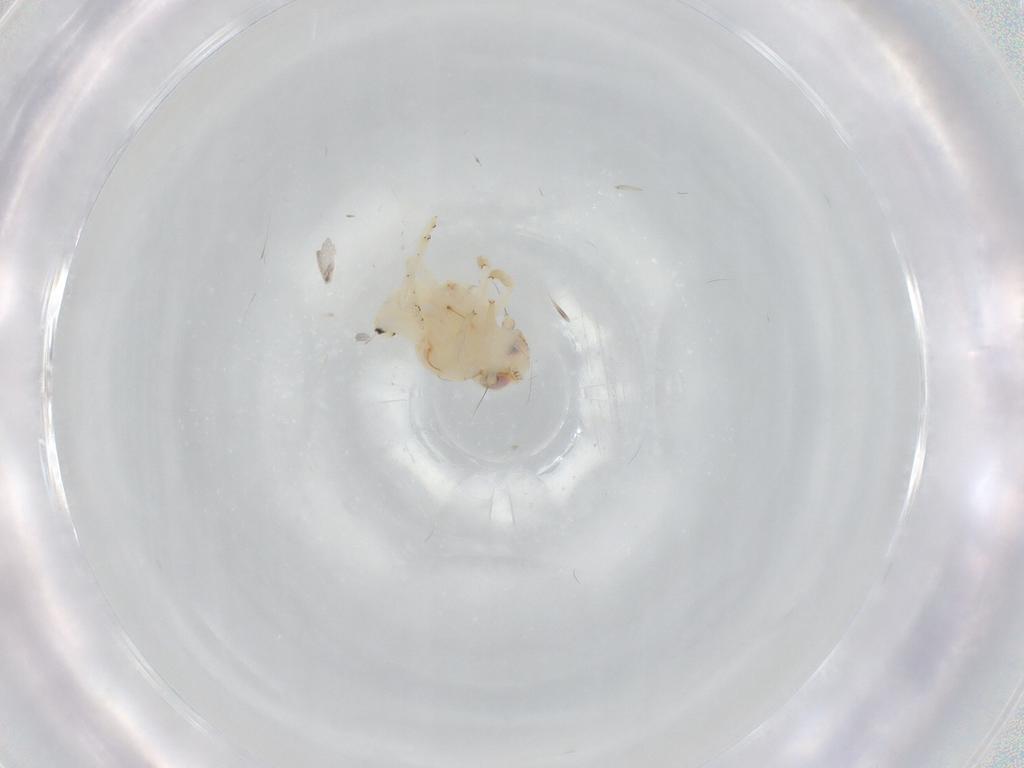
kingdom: Animalia
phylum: Arthropoda
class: Insecta
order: Hemiptera
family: Nogodinidae
